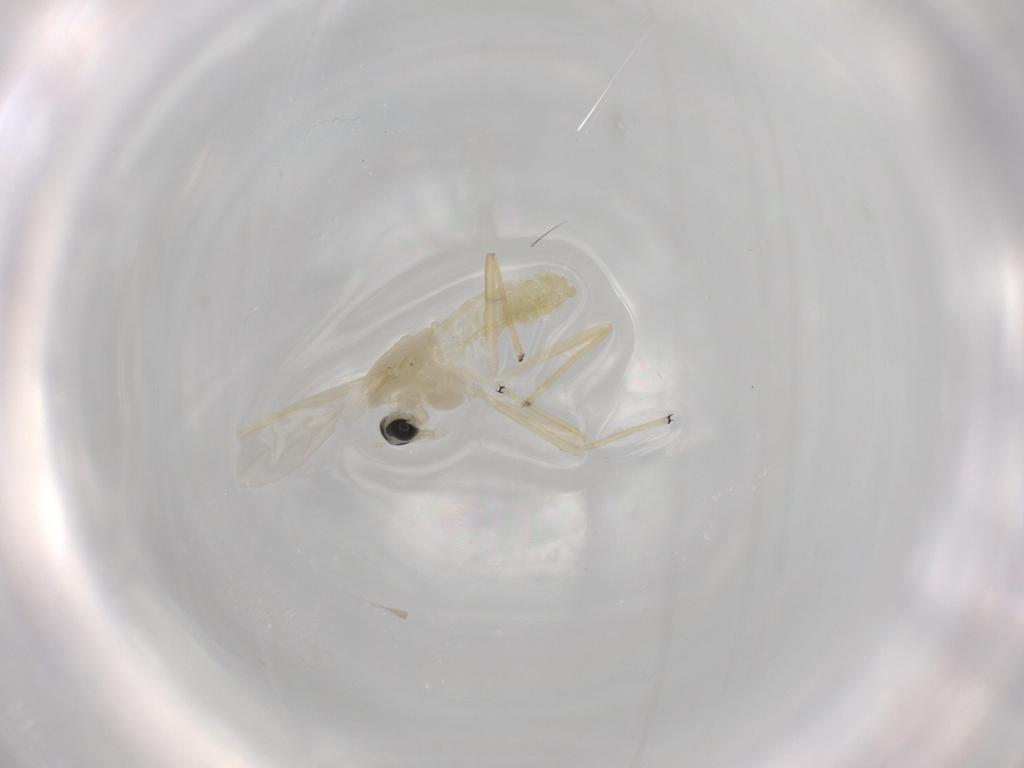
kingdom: Animalia
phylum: Arthropoda
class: Insecta
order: Diptera
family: Chironomidae
